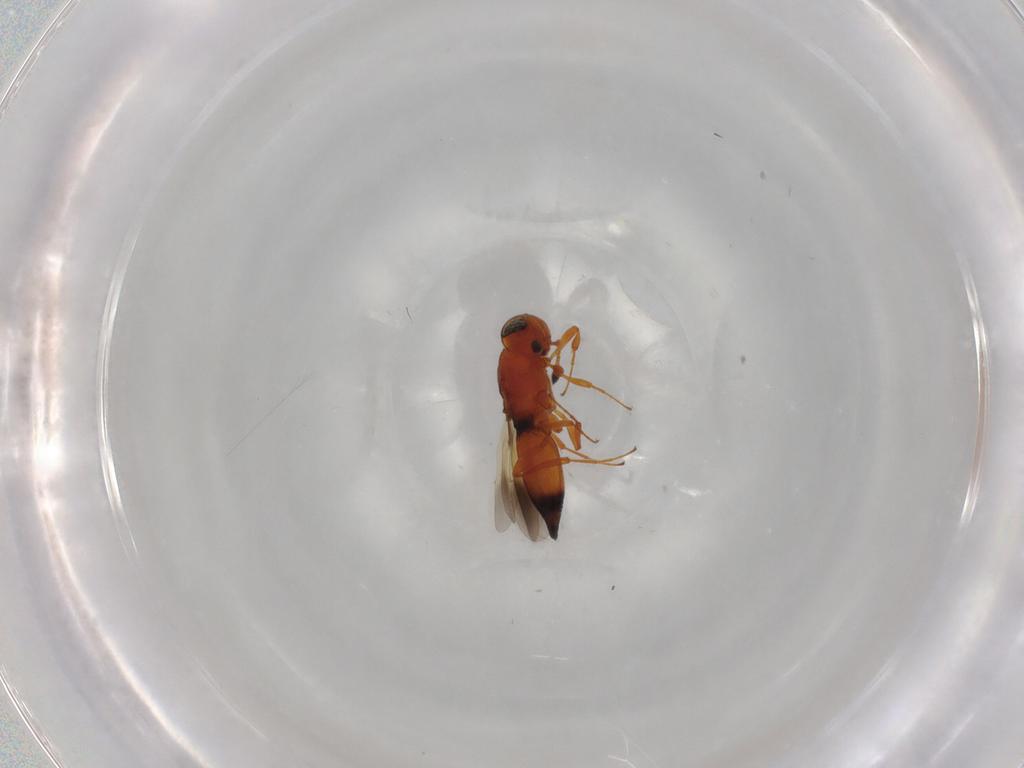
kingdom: Animalia
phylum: Arthropoda
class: Insecta
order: Hymenoptera
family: Platygastridae
